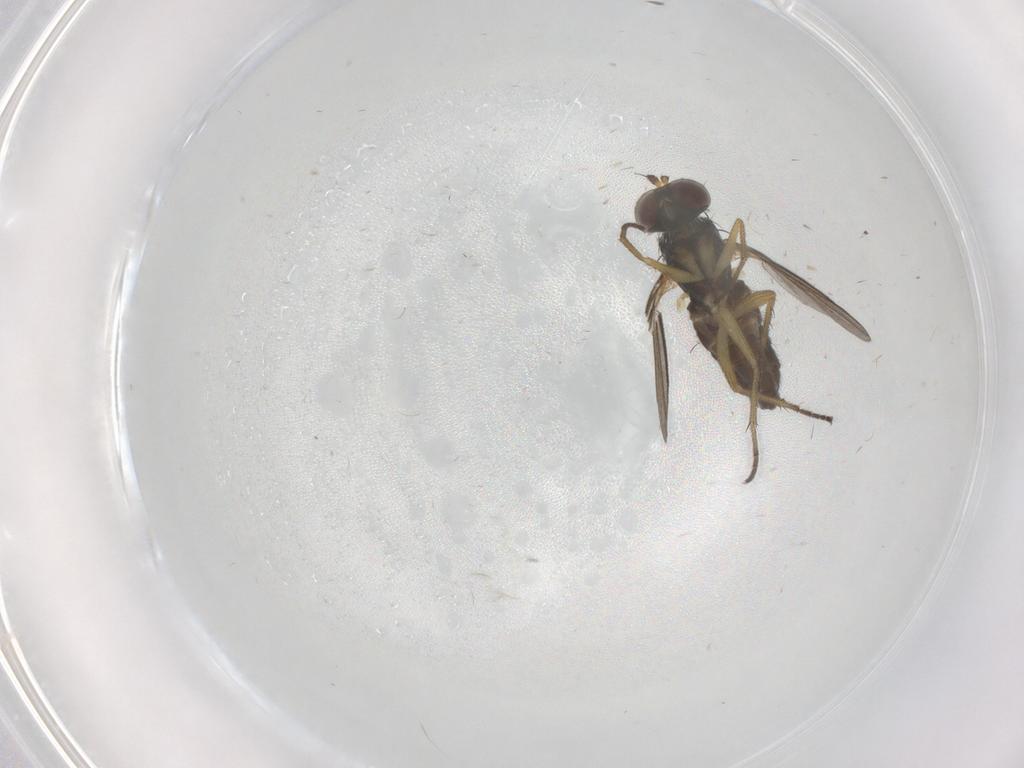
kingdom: Animalia
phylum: Arthropoda
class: Insecta
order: Diptera
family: Dolichopodidae
